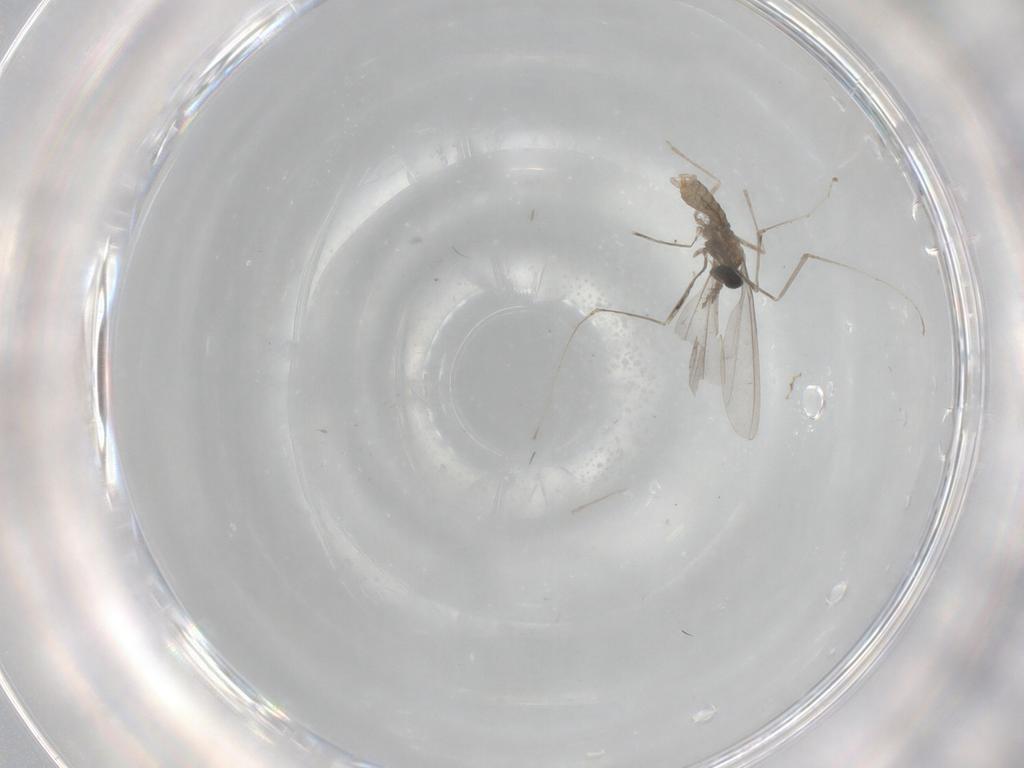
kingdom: Animalia
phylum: Arthropoda
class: Insecta
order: Diptera
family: Cecidomyiidae
